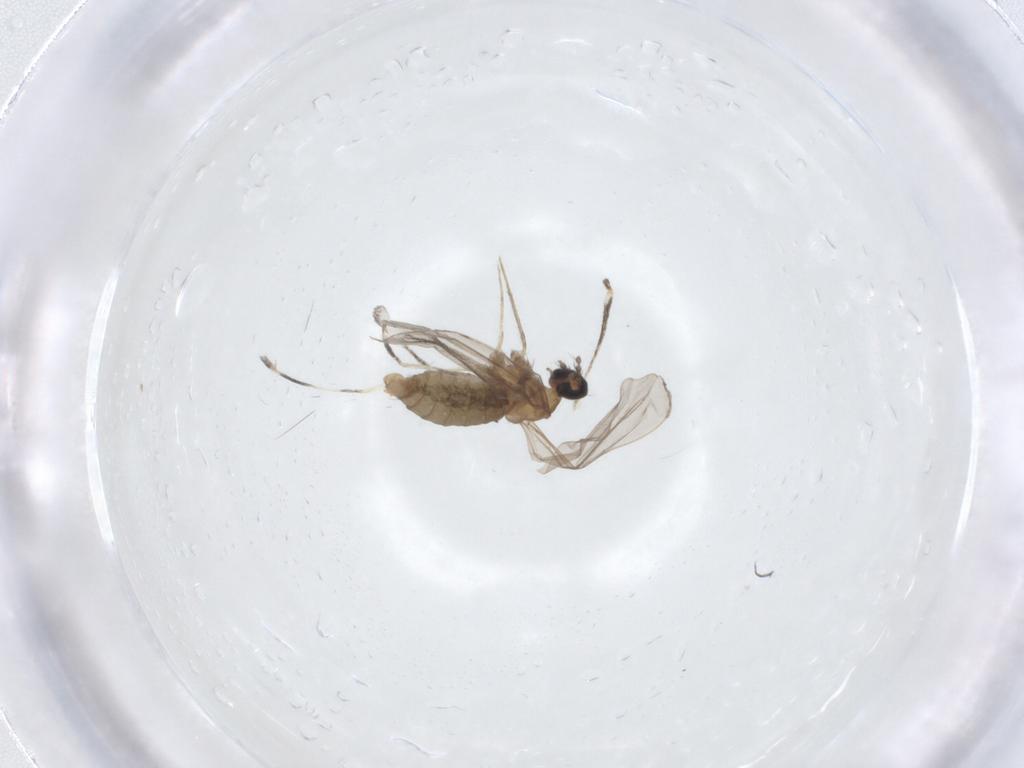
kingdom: Animalia
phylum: Arthropoda
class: Insecta
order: Diptera
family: Cecidomyiidae
